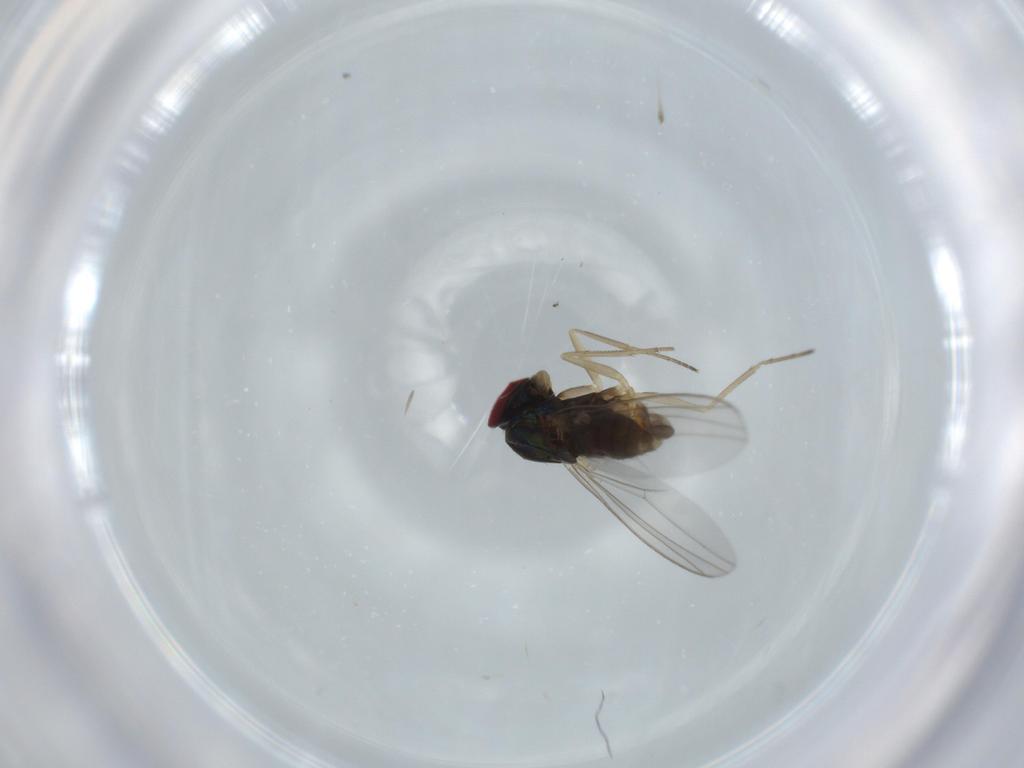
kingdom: Animalia
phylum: Arthropoda
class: Insecta
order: Diptera
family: Dolichopodidae
